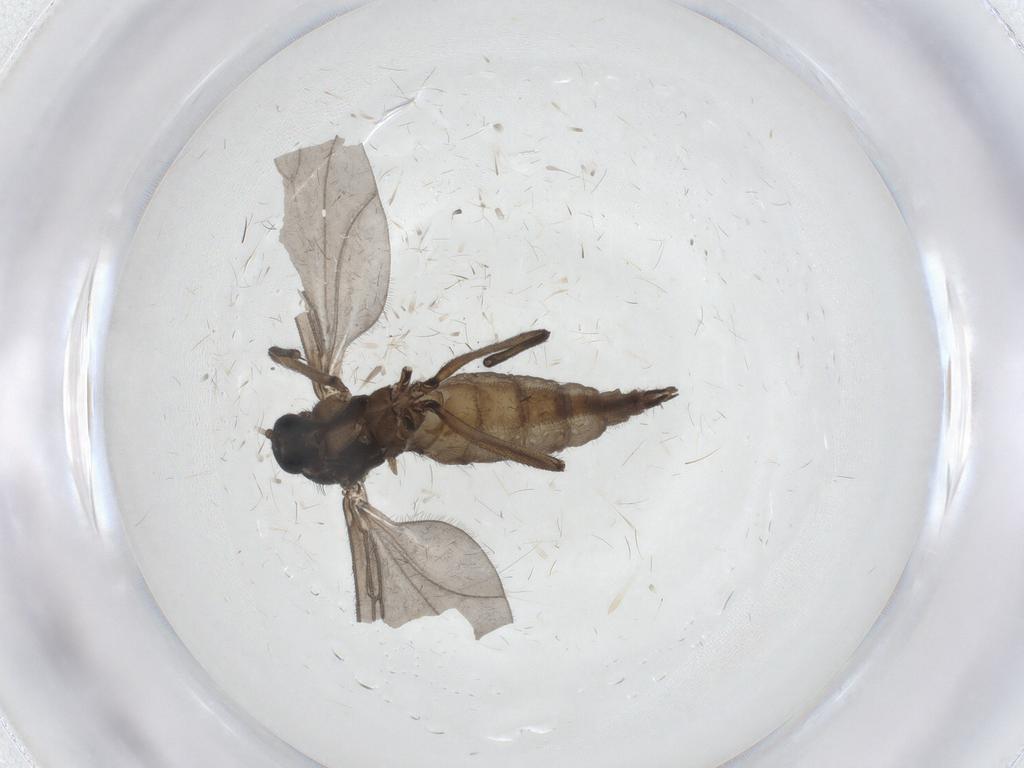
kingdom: Animalia
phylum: Arthropoda
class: Insecta
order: Diptera
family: Sciaridae
